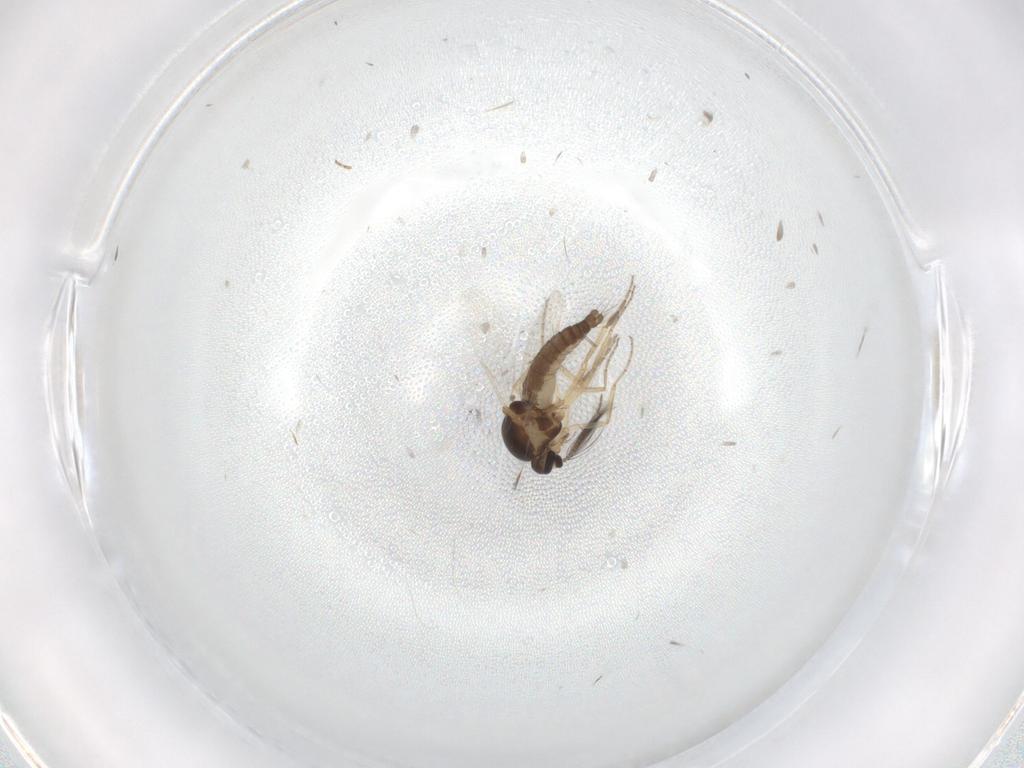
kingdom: Animalia
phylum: Arthropoda
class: Insecta
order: Diptera
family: Ceratopogonidae
